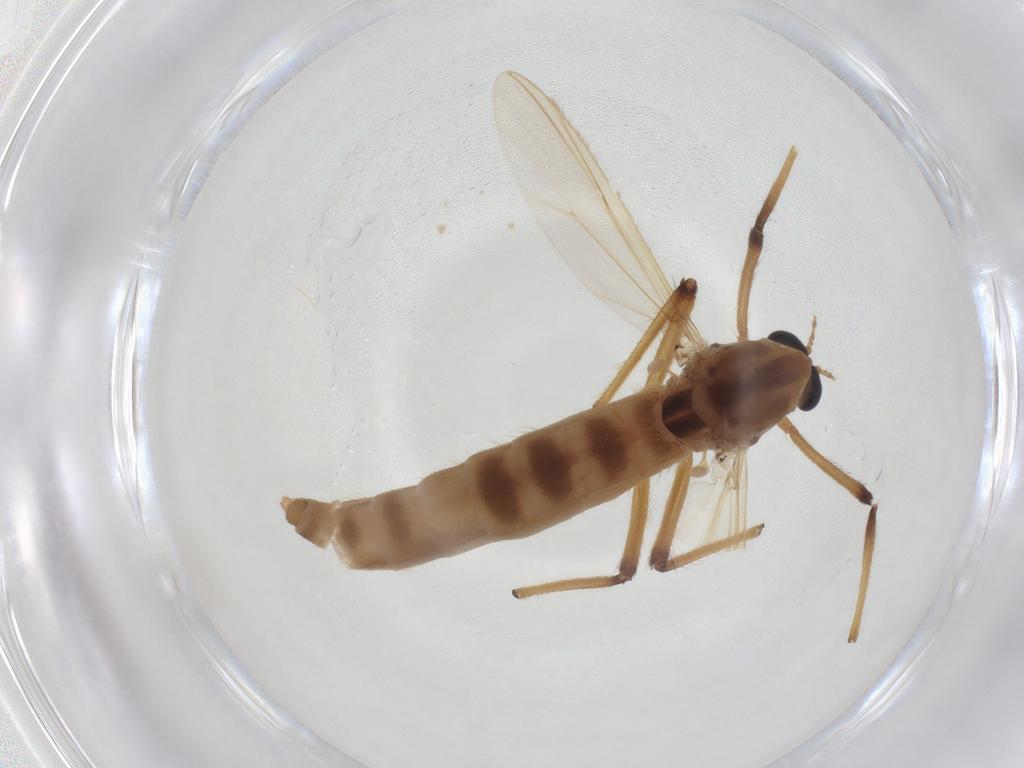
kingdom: Animalia
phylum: Arthropoda
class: Insecta
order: Diptera
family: Chironomidae
